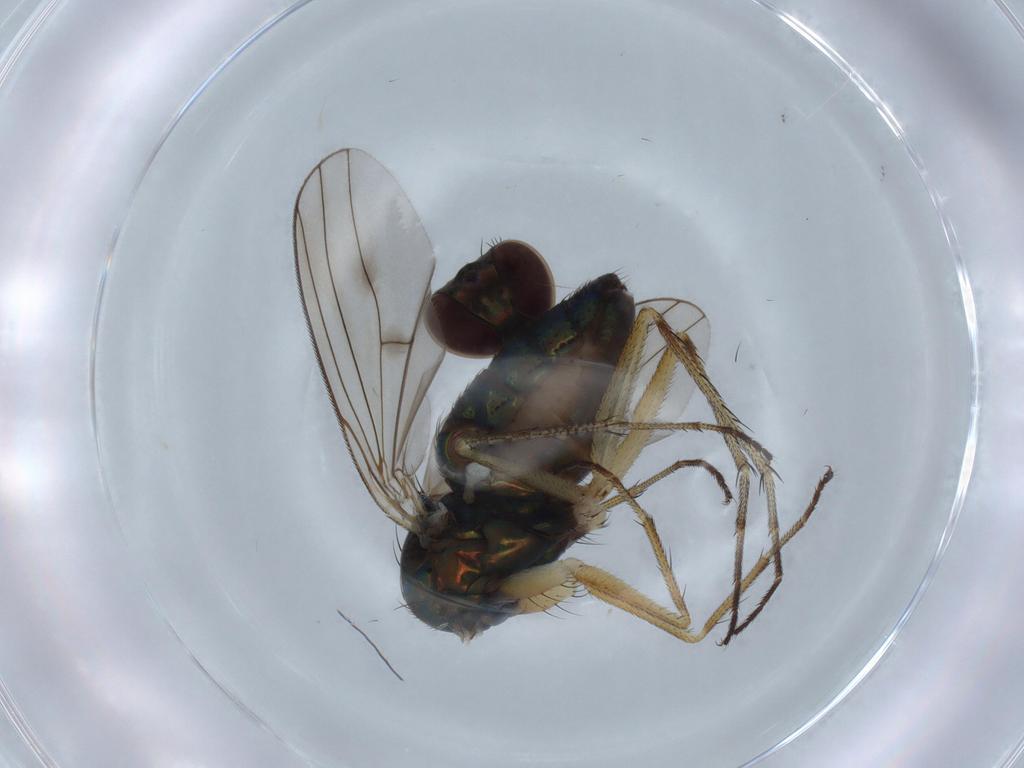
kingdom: Animalia
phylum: Arthropoda
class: Insecta
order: Diptera
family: Dolichopodidae
